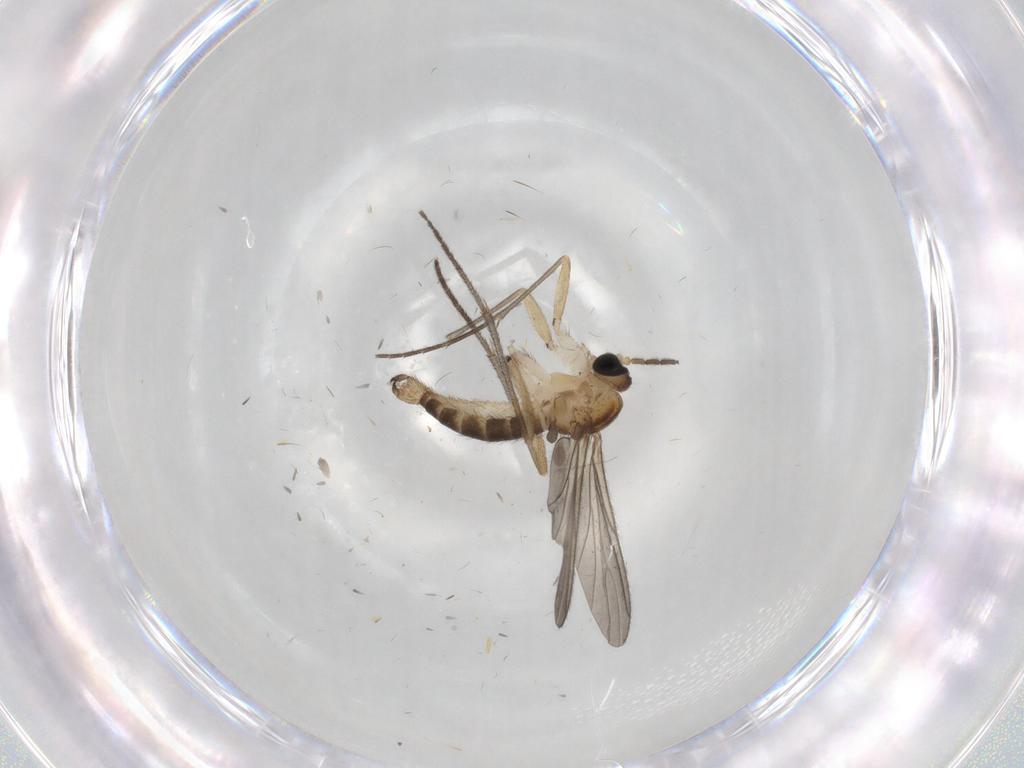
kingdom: Animalia
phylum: Arthropoda
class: Insecta
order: Diptera
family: Sciaridae
